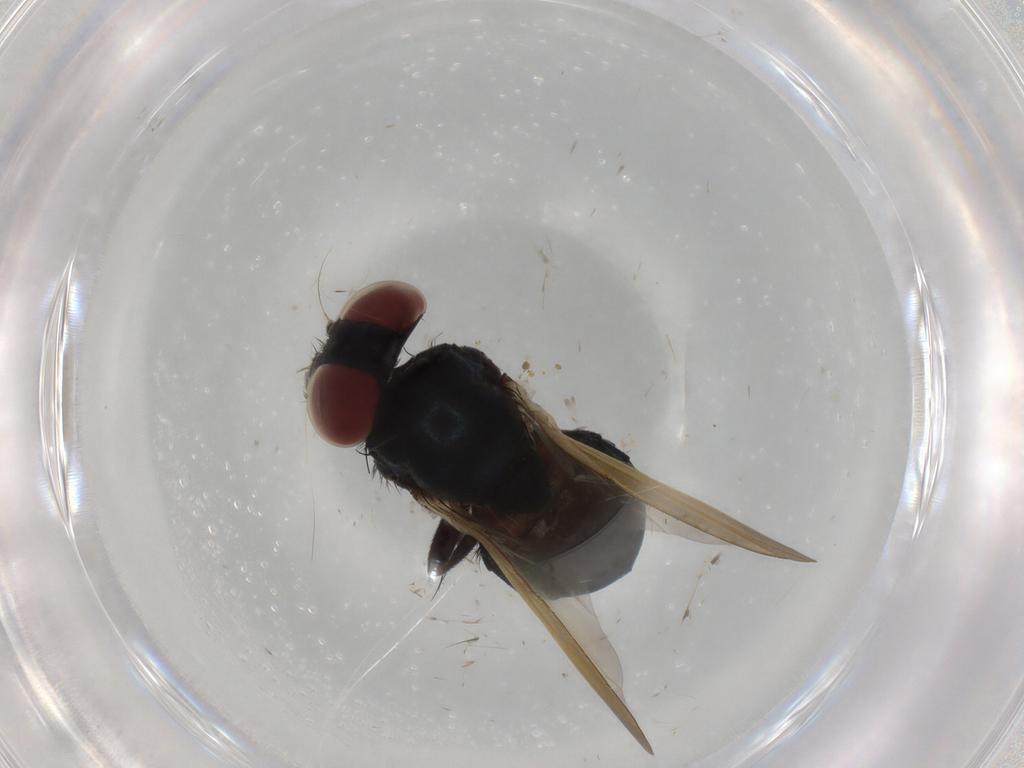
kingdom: Animalia
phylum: Arthropoda
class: Insecta
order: Diptera
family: Lonchaeidae
